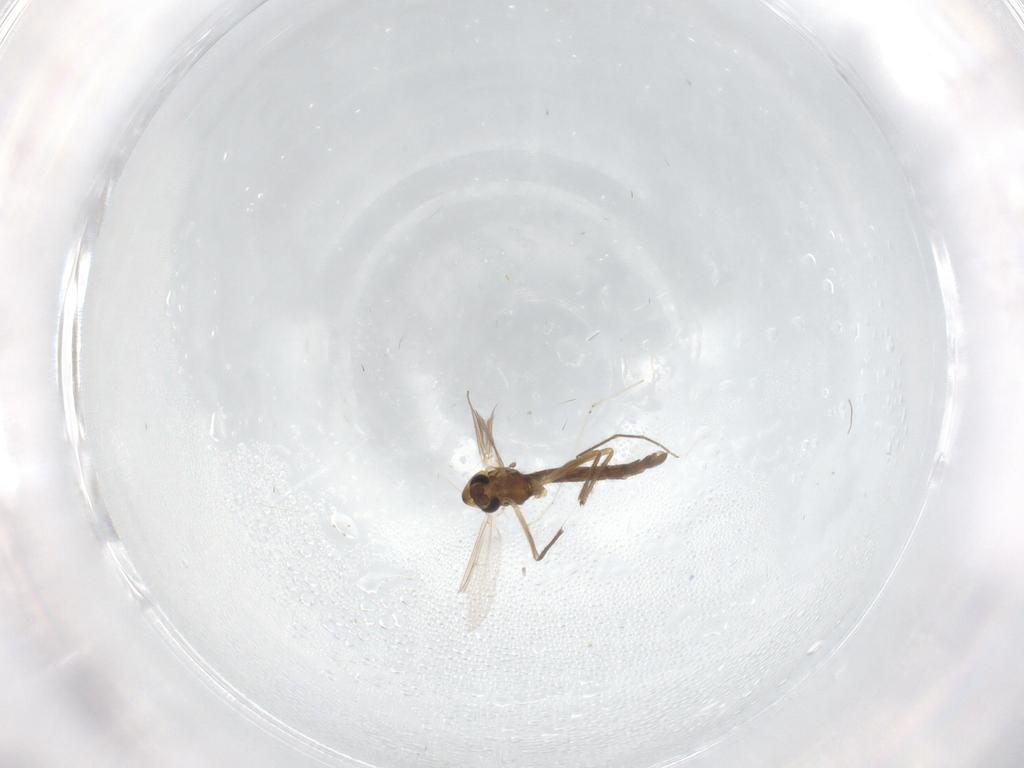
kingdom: Animalia
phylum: Arthropoda
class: Insecta
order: Diptera
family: Chironomidae
